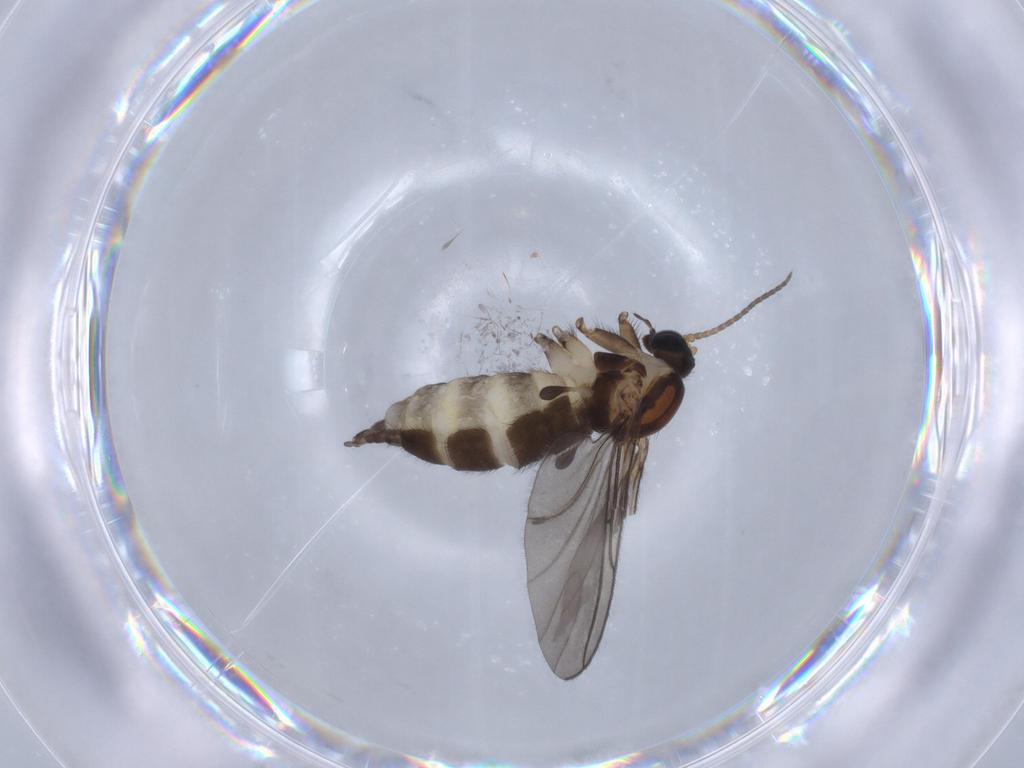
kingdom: Animalia
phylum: Arthropoda
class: Insecta
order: Diptera
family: Sciaridae
